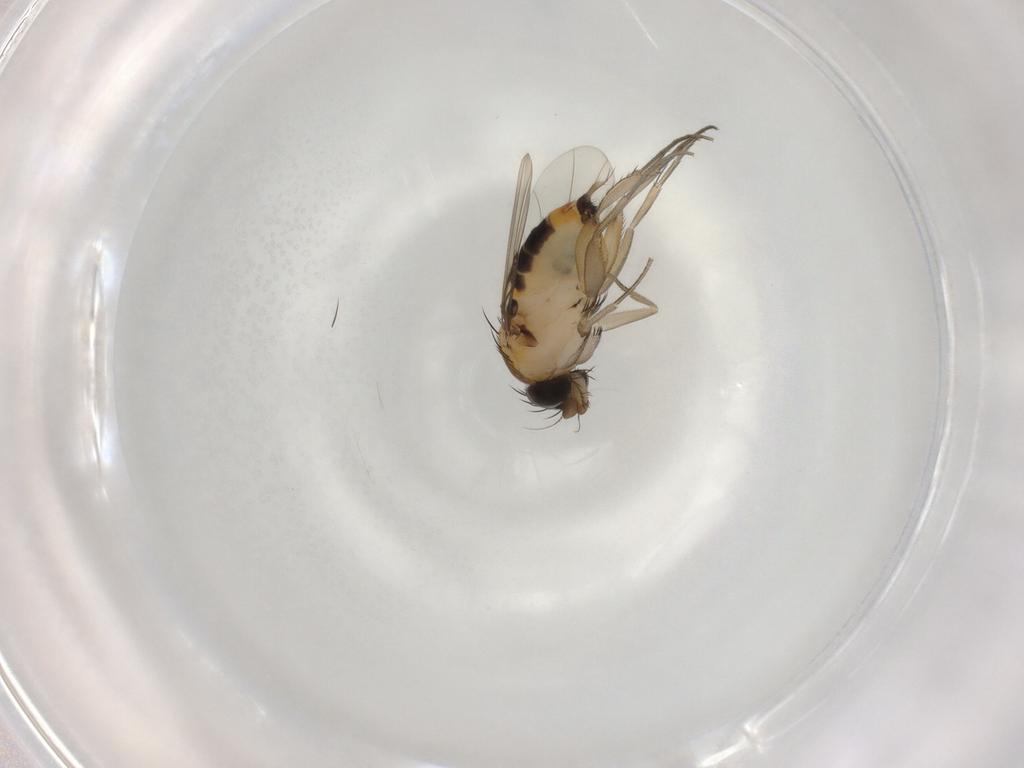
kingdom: Animalia
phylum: Arthropoda
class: Insecta
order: Diptera
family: Phoridae
